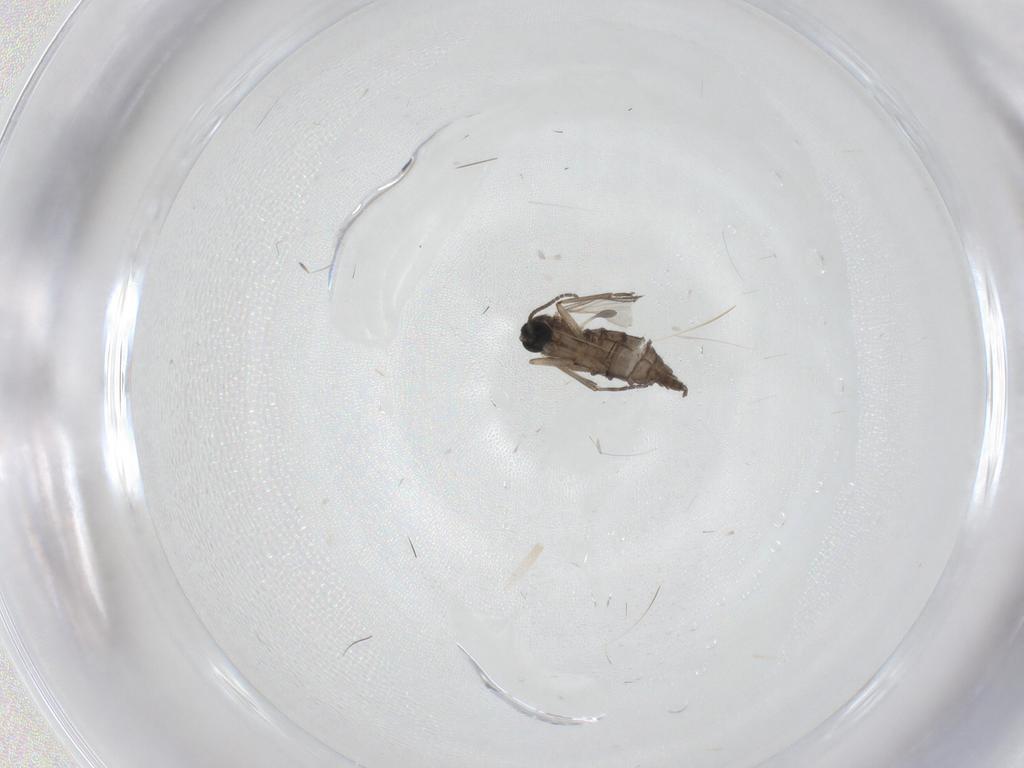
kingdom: Animalia
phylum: Arthropoda
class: Insecta
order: Diptera
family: Sciaridae
